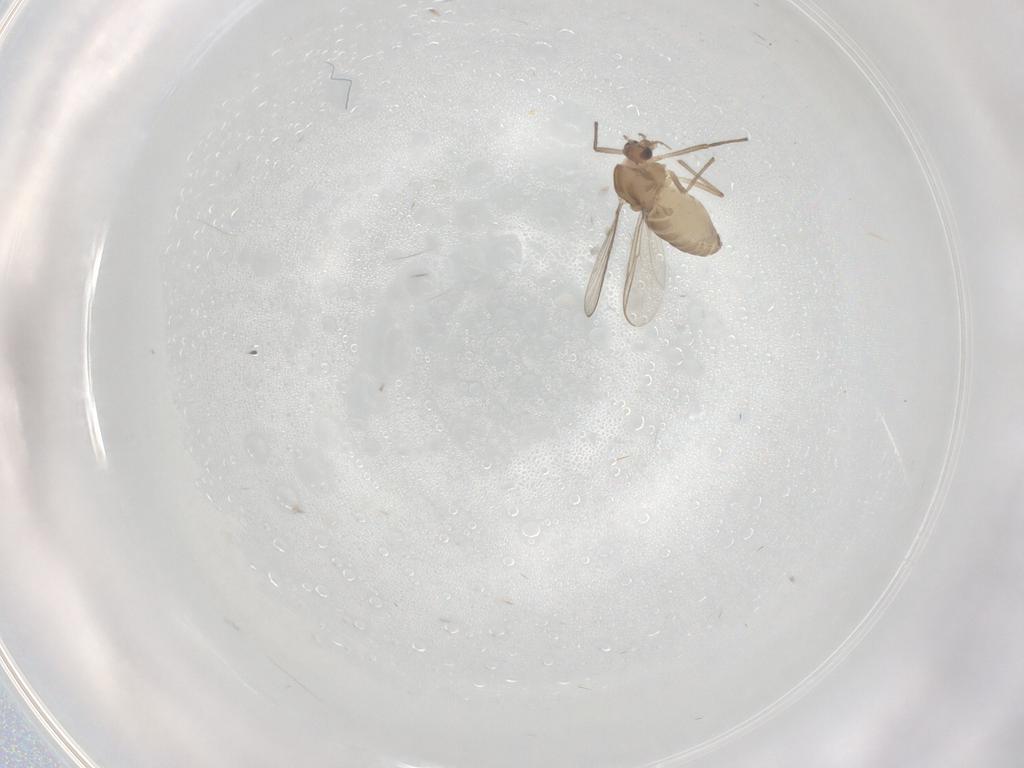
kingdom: Animalia
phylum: Arthropoda
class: Insecta
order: Diptera
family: Chironomidae
